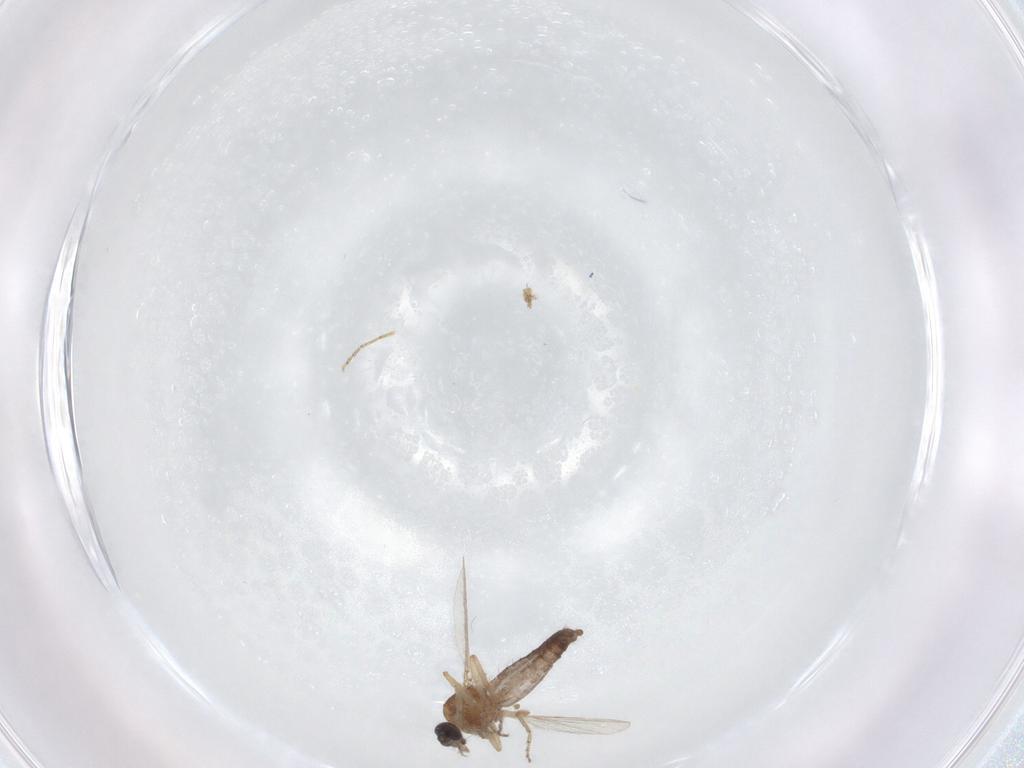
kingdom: Animalia
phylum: Arthropoda
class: Insecta
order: Diptera
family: Ceratopogonidae
